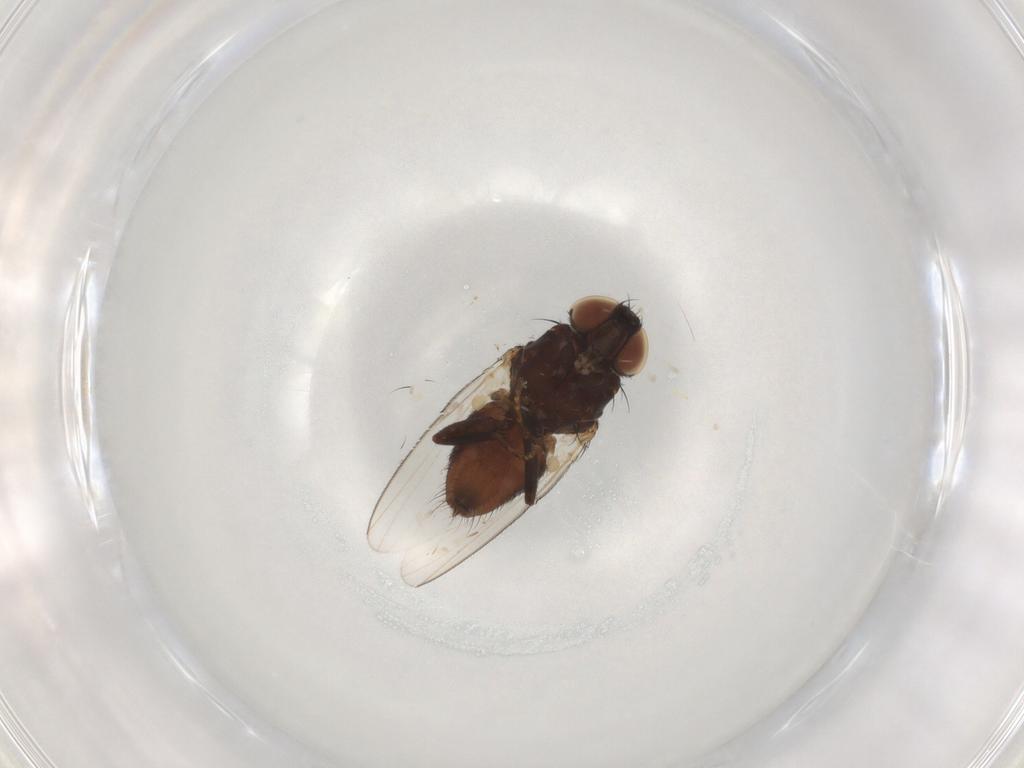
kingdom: Animalia
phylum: Arthropoda
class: Insecta
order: Diptera
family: Milichiidae
